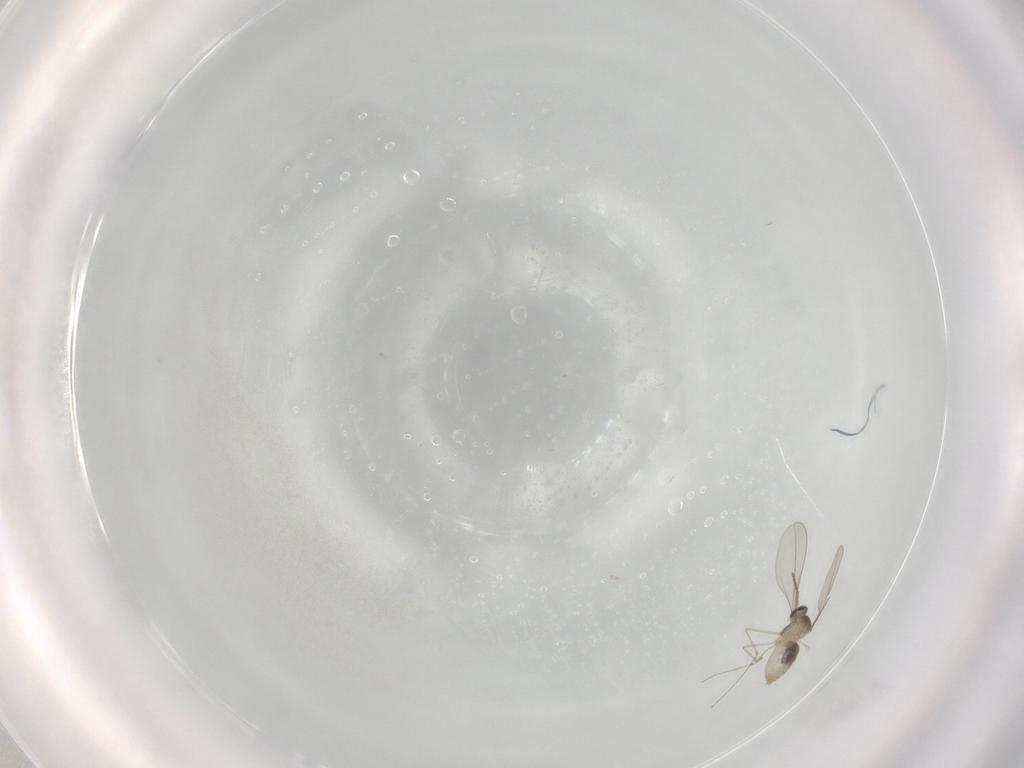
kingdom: Animalia
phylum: Arthropoda
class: Insecta
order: Diptera
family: Cecidomyiidae
